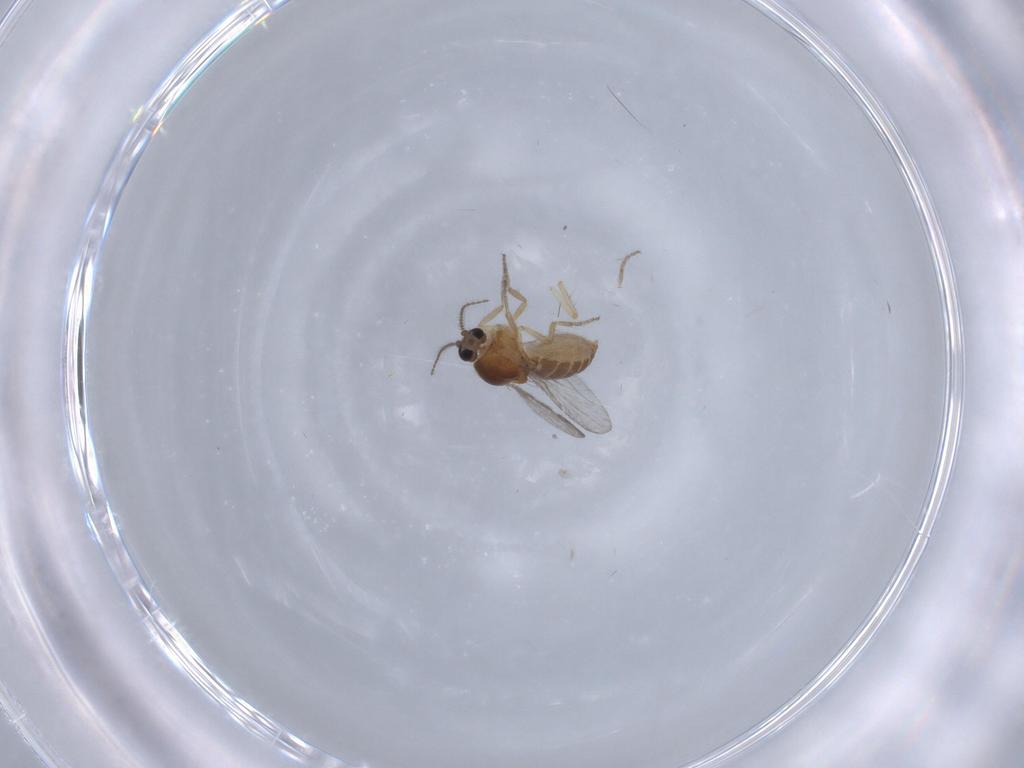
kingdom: Animalia
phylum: Arthropoda
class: Insecta
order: Diptera
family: Ceratopogonidae
